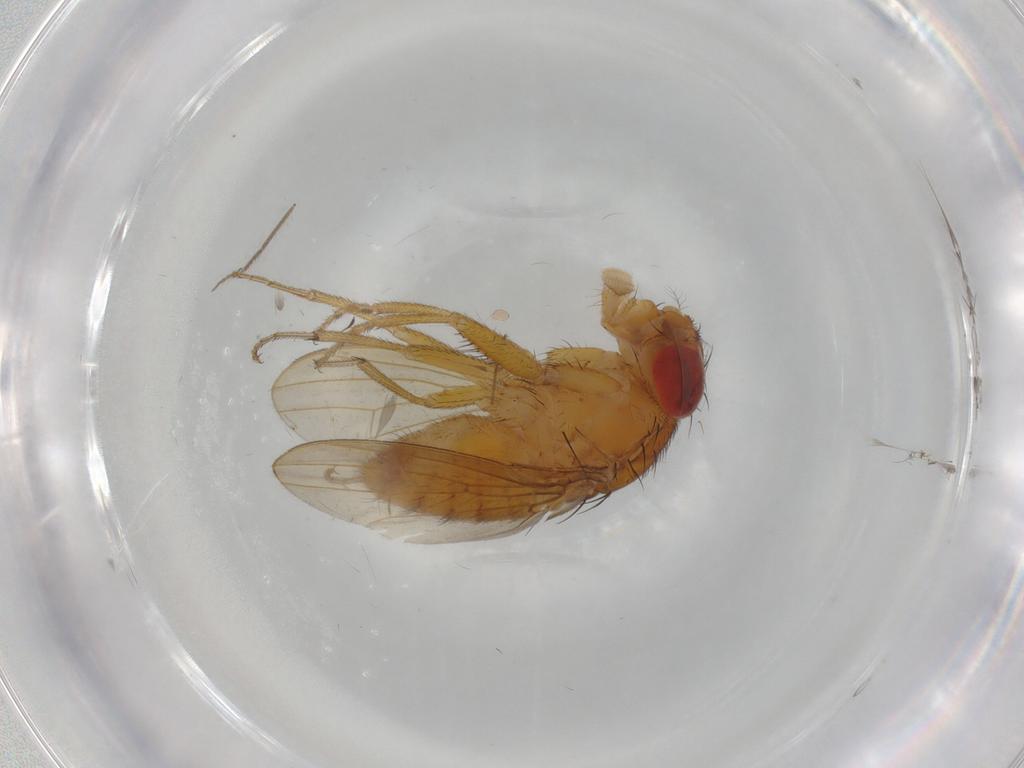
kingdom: Animalia
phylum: Arthropoda
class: Insecta
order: Diptera
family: Drosophilidae
